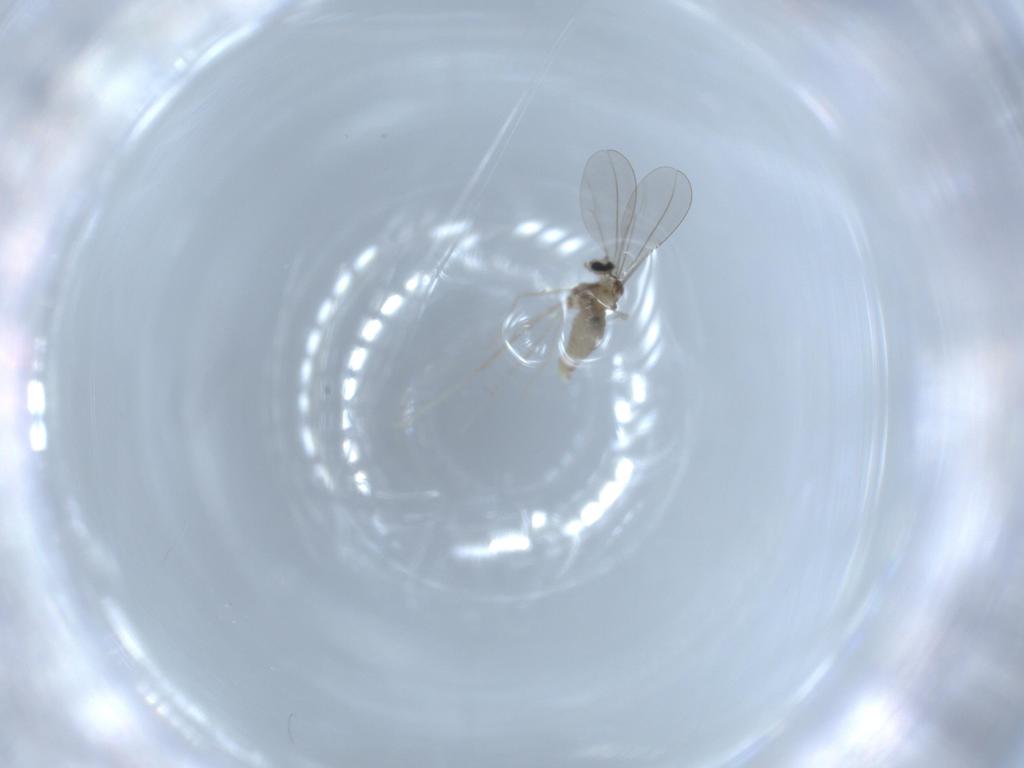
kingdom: Animalia
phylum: Arthropoda
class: Insecta
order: Diptera
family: Cecidomyiidae
